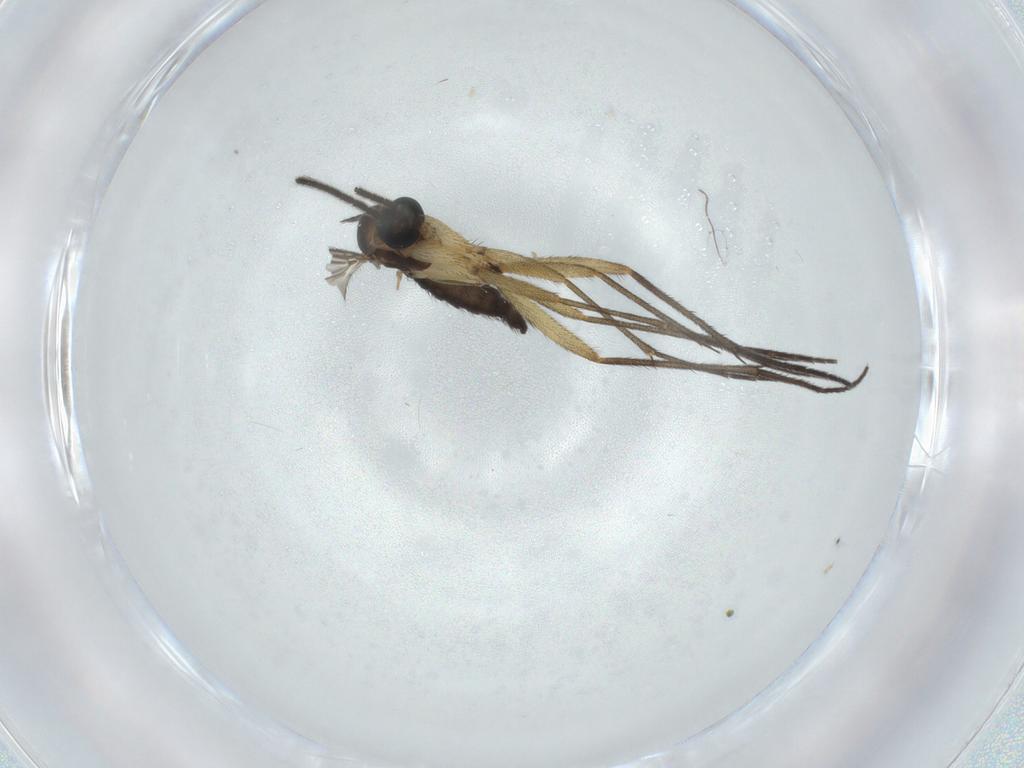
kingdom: Animalia
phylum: Arthropoda
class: Insecta
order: Diptera
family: Sciaridae
